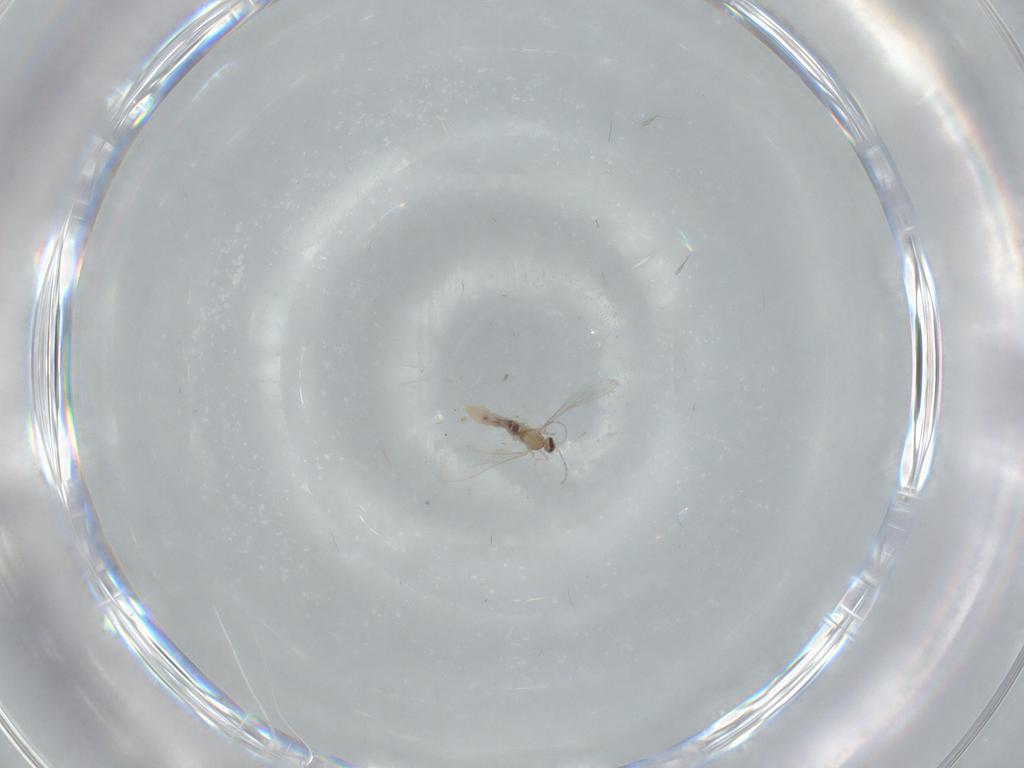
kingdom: Animalia
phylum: Arthropoda
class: Insecta
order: Diptera
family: Cecidomyiidae
